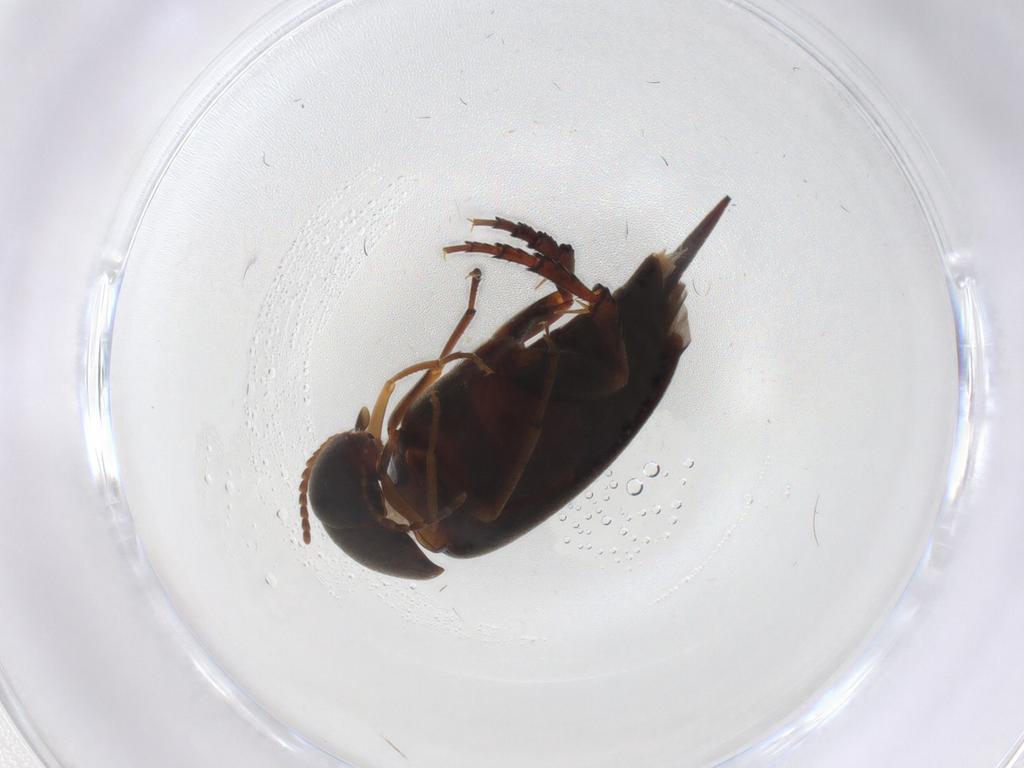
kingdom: Animalia
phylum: Arthropoda
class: Insecta
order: Coleoptera
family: Mordellidae
